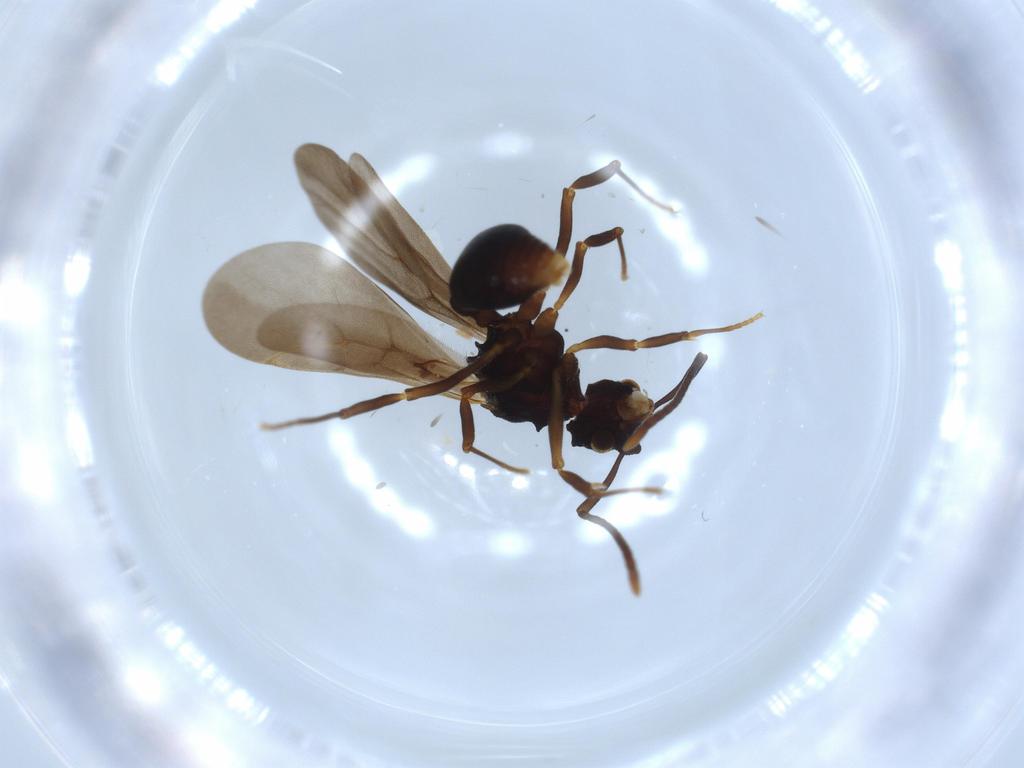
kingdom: Animalia
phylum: Arthropoda
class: Insecta
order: Hymenoptera
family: Formicidae
